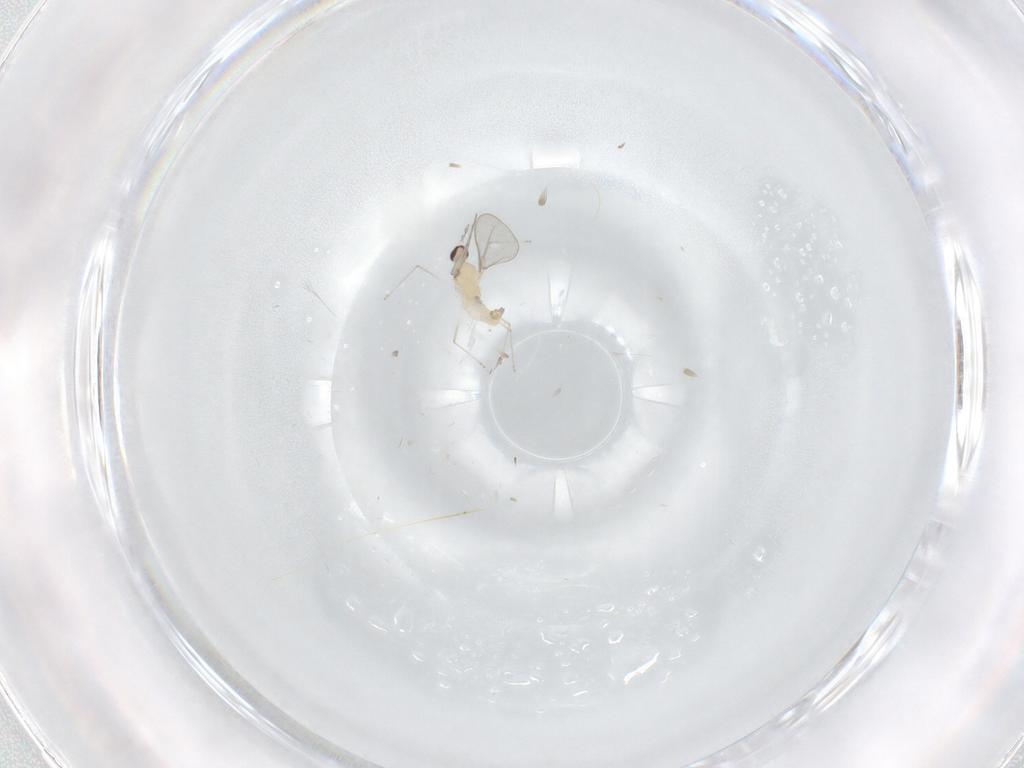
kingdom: Animalia
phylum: Arthropoda
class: Insecta
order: Diptera
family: Cecidomyiidae
